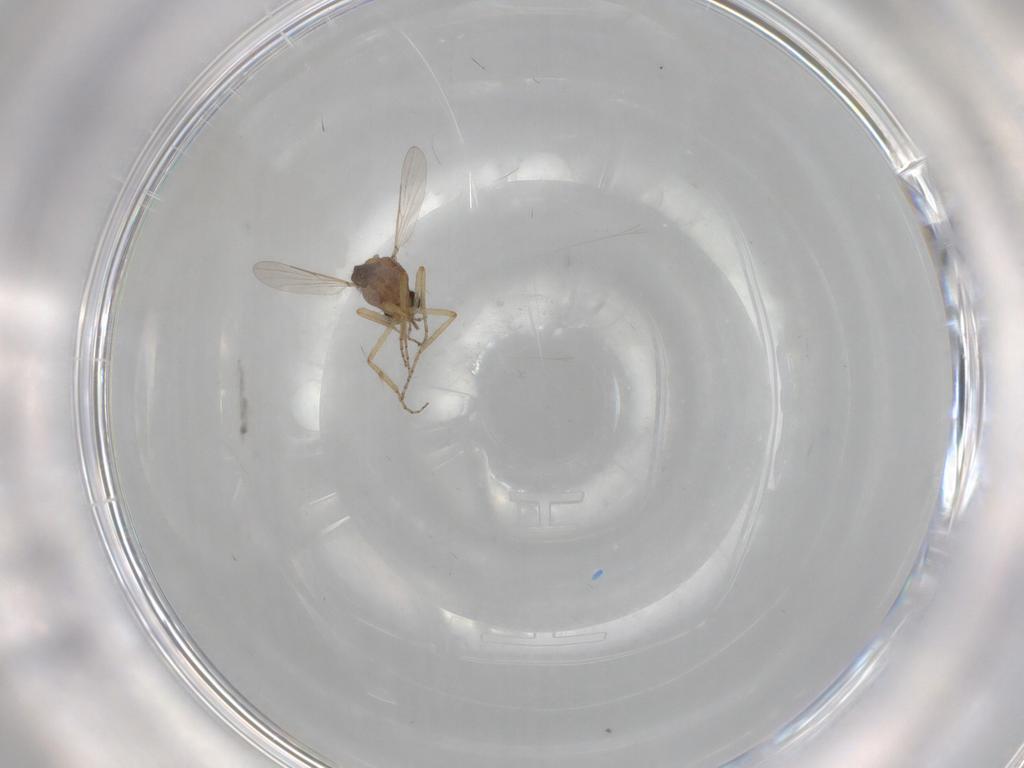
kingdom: Animalia
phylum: Arthropoda
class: Insecta
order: Diptera
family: Ceratopogonidae
